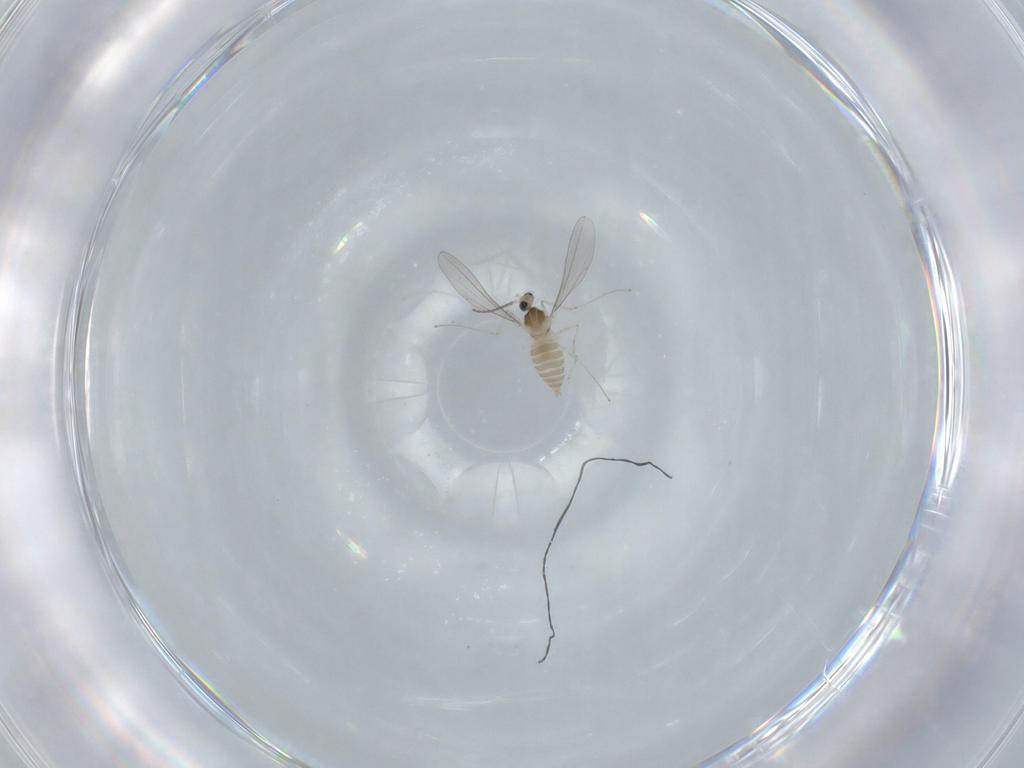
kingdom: Animalia
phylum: Arthropoda
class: Insecta
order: Diptera
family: Cecidomyiidae
